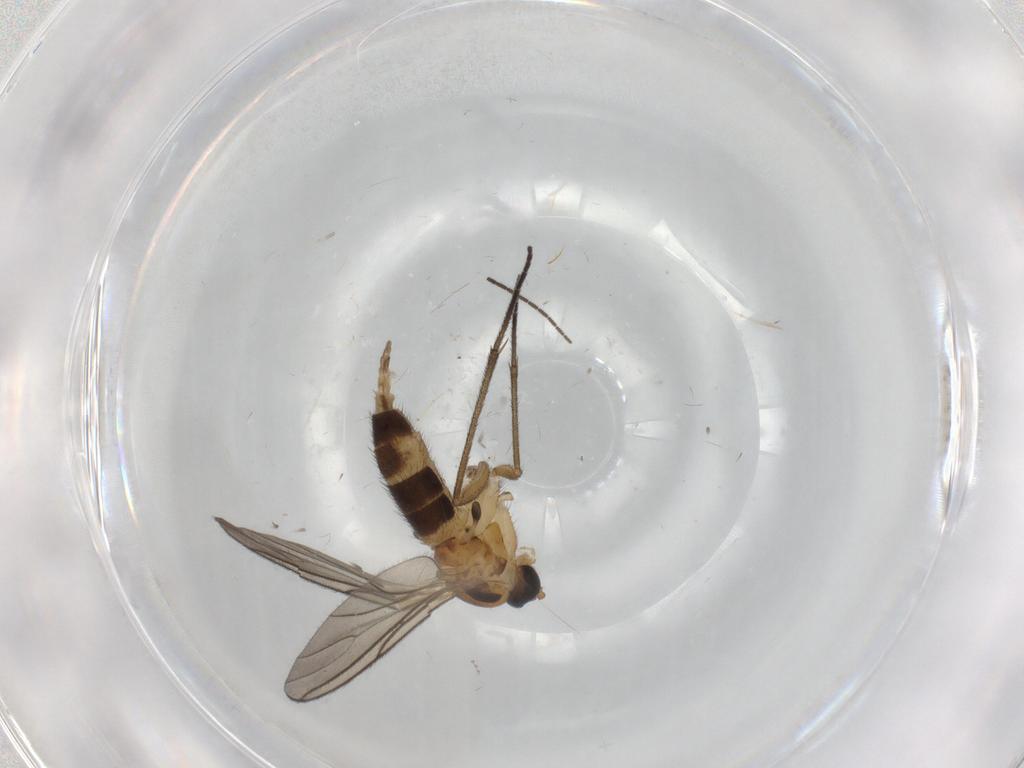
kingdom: Animalia
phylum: Arthropoda
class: Insecta
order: Diptera
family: Cecidomyiidae
